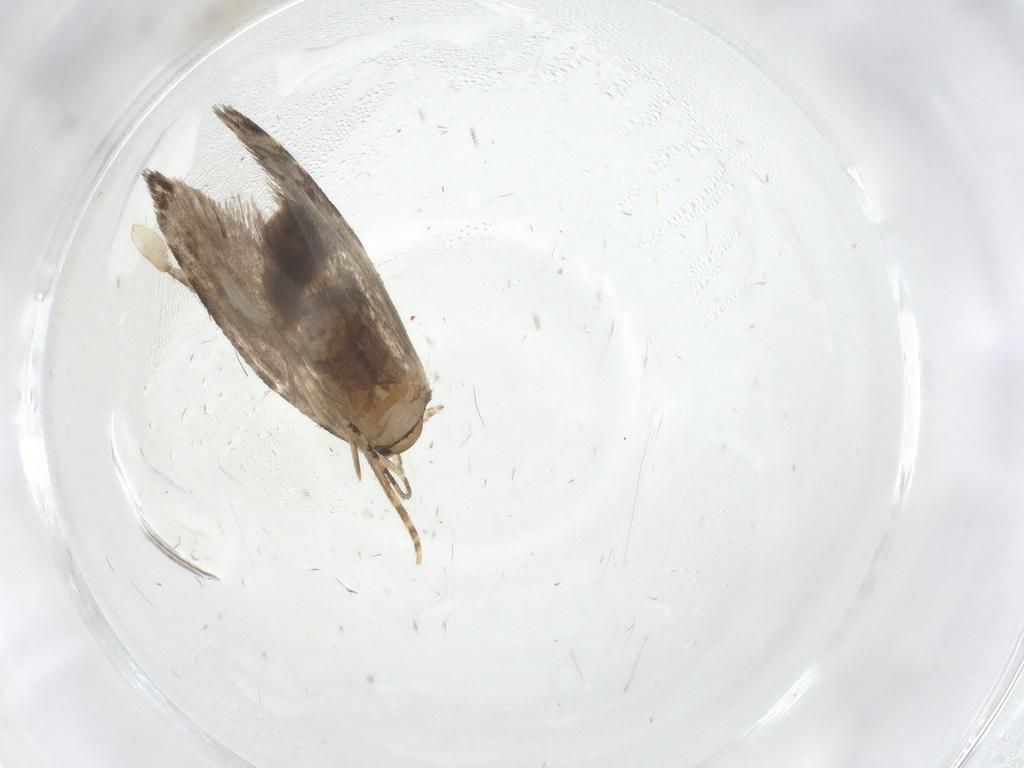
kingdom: Animalia
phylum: Arthropoda
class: Insecta
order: Lepidoptera
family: Tineidae
